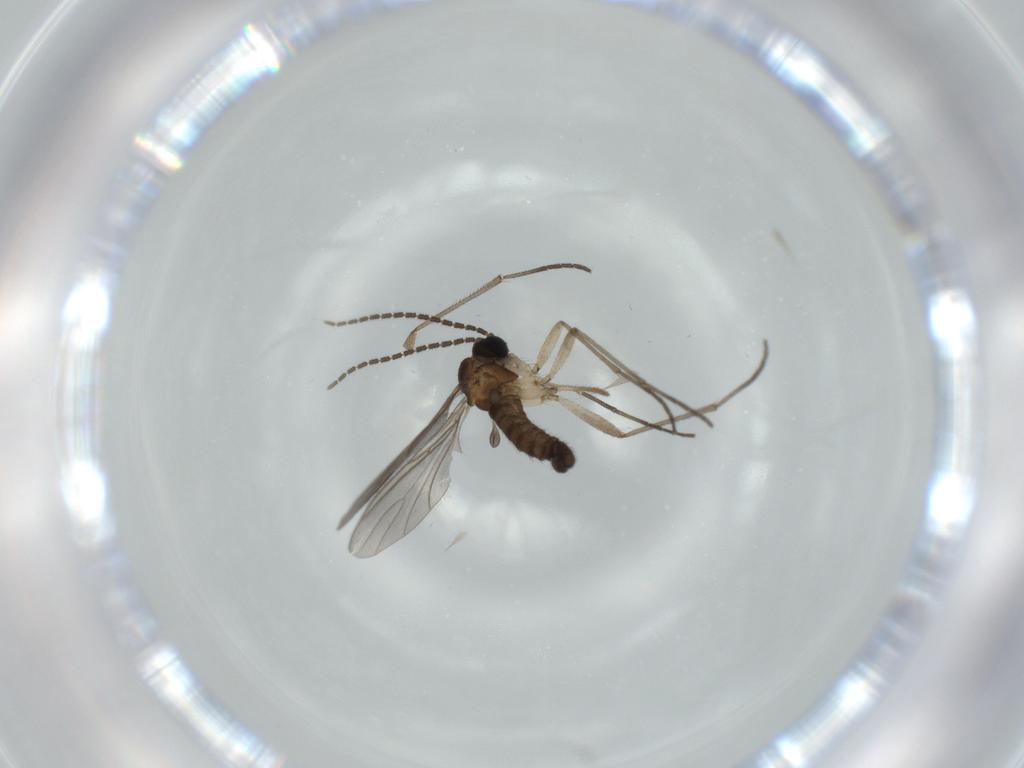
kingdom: Animalia
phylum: Arthropoda
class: Insecta
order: Diptera
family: Sciaridae
